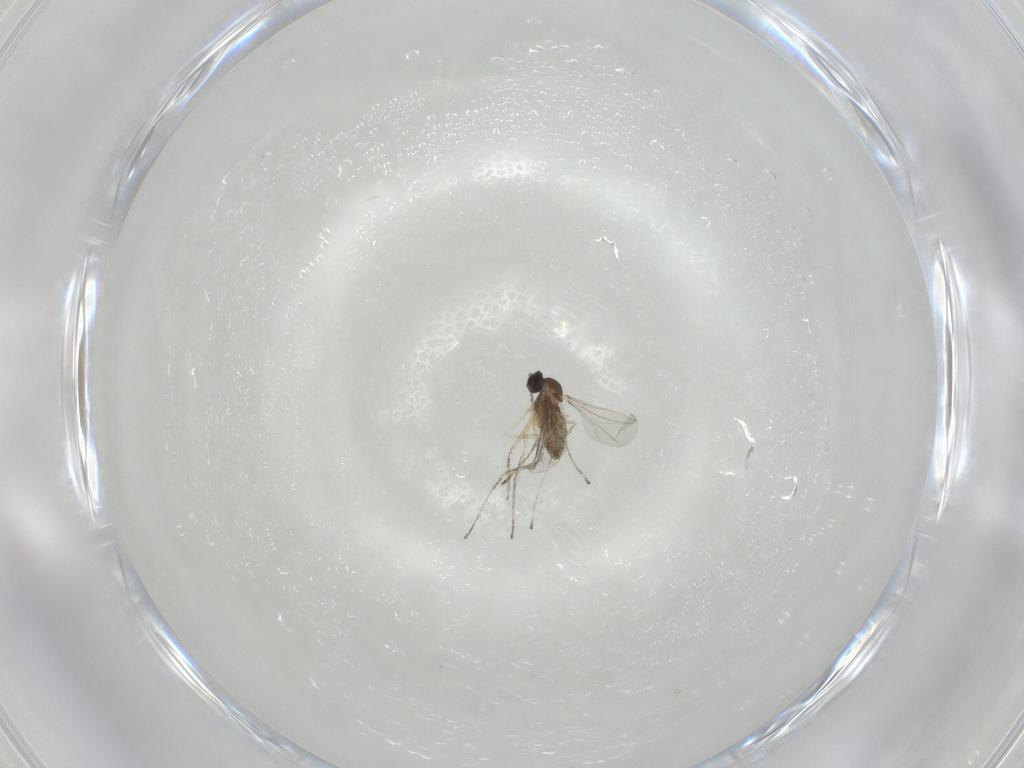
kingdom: Animalia
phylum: Arthropoda
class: Insecta
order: Diptera
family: Cecidomyiidae
